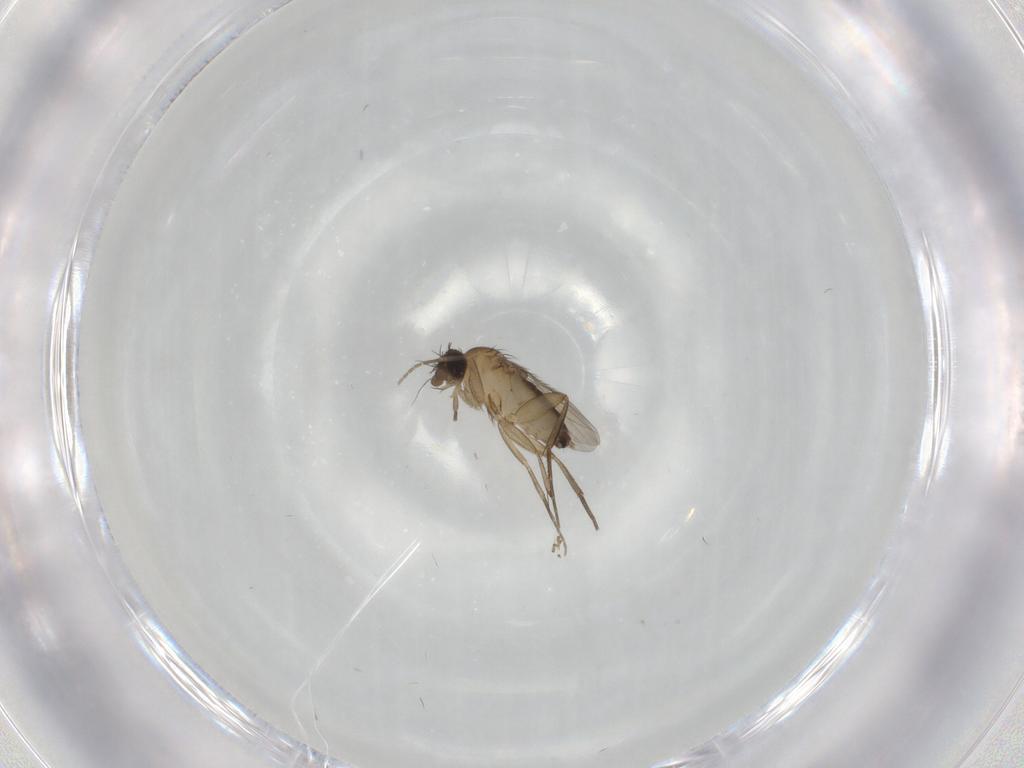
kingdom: Animalia
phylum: Arthropoda
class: Insecta
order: Diptera
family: Phoridae
